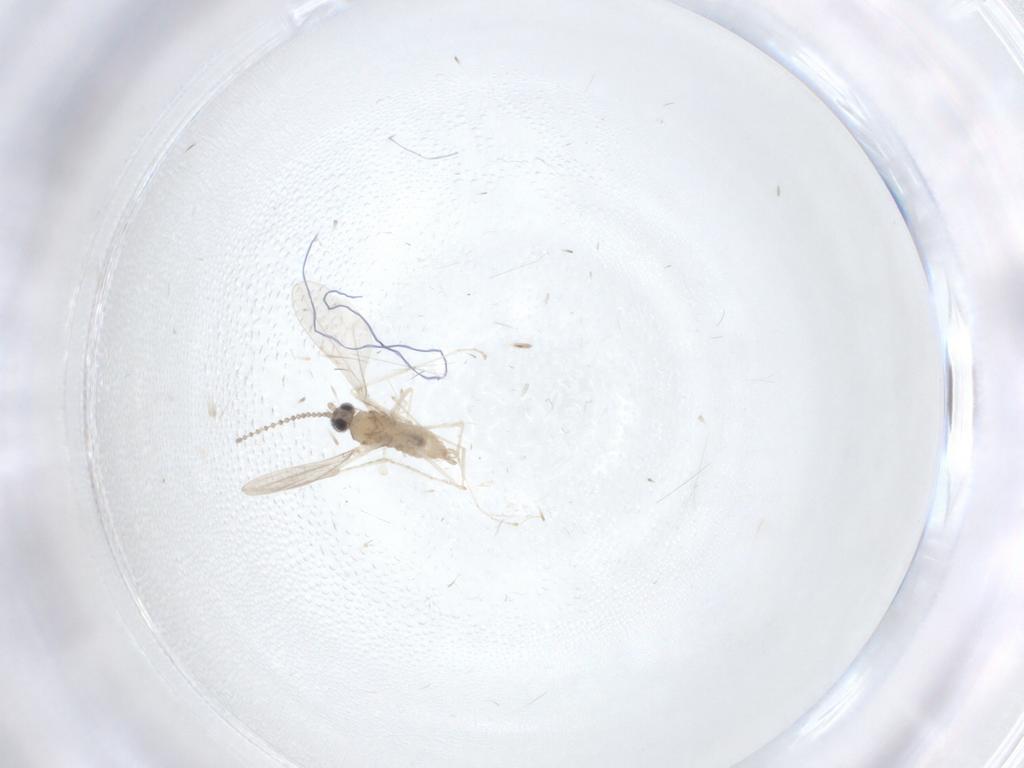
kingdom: Animalia
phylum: Arthropoda
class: Insecta
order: Diptera
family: Cecidomyiidae
